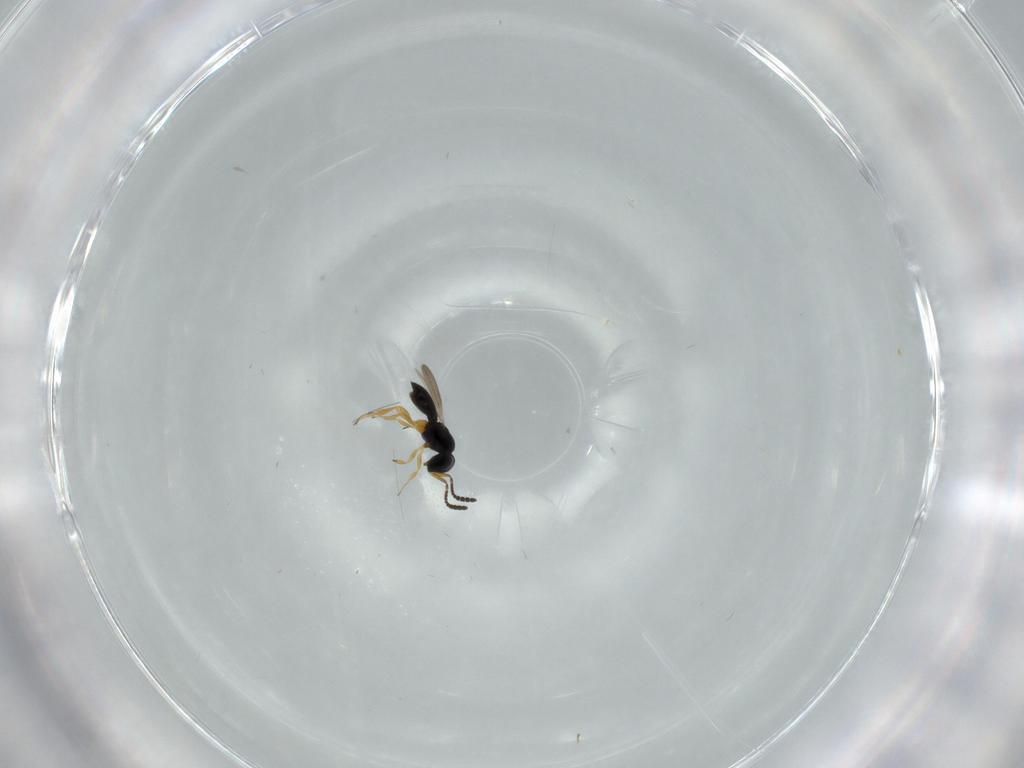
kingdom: Animalia
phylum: Arthropoda
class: Insecta
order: Hymenoptera
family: Scelionidae
